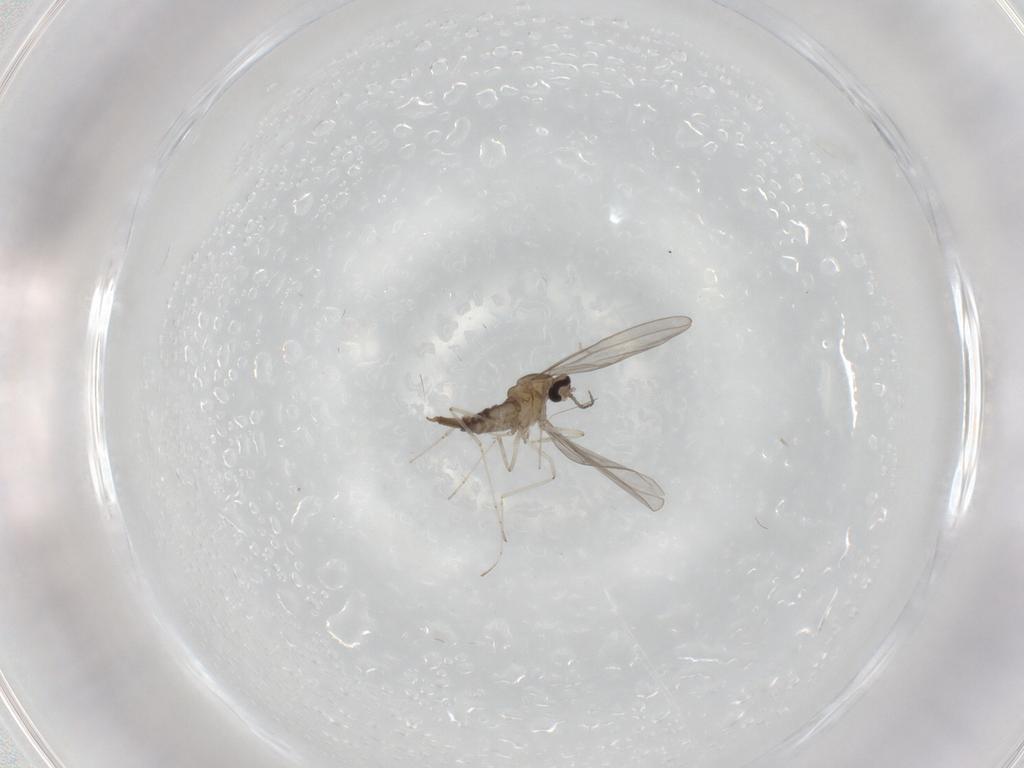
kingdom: Animalia
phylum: Arthropoda
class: Insecta
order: Diptera
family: Cecidomyiidae
